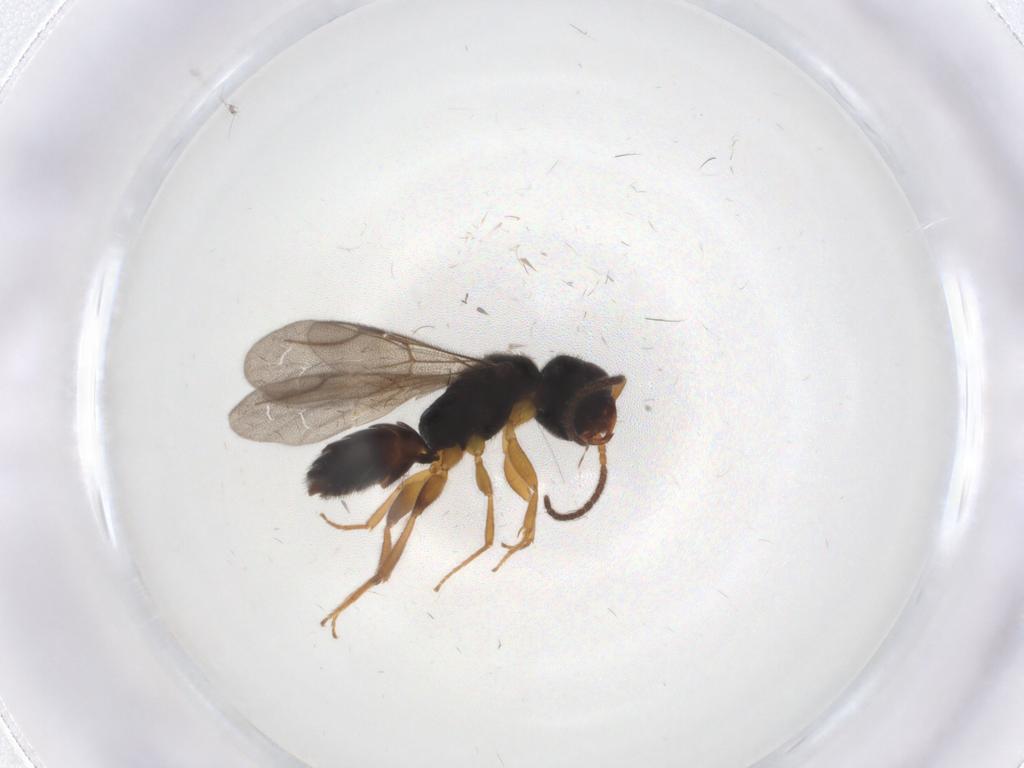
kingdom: Animalia
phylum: Arthropoda
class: Insecta
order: Hymenoptera
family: Bethylidae
